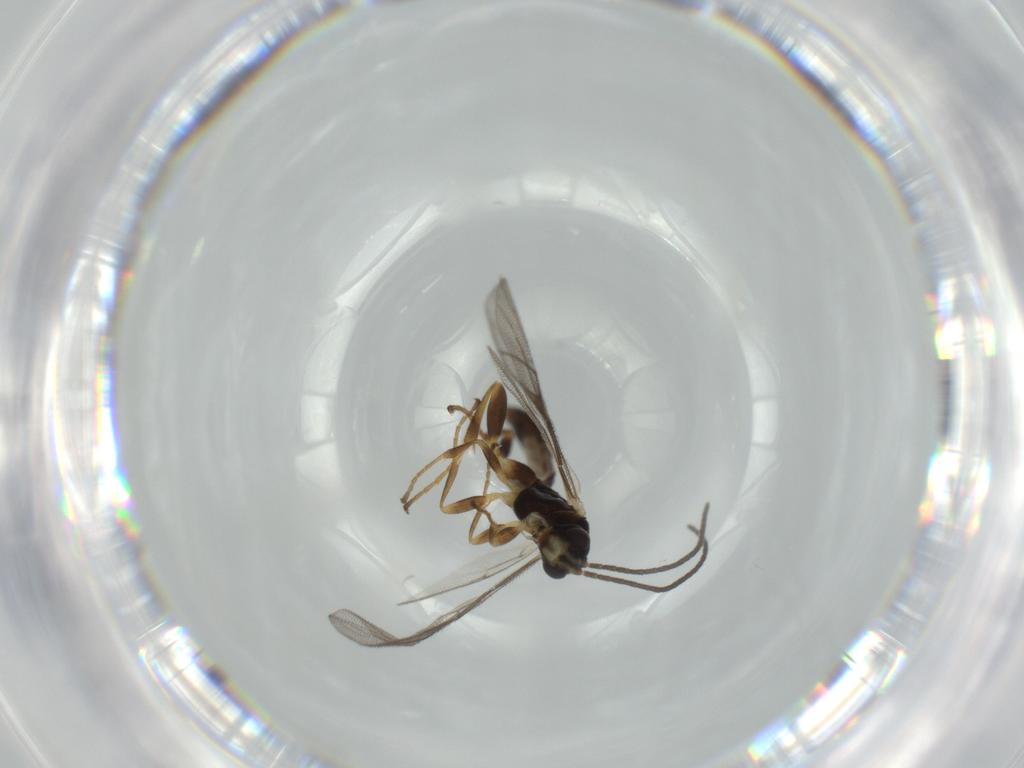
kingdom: Animalia
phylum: Arthropoda
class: Insecta
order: Hymenoptera
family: Ichneumonidae
